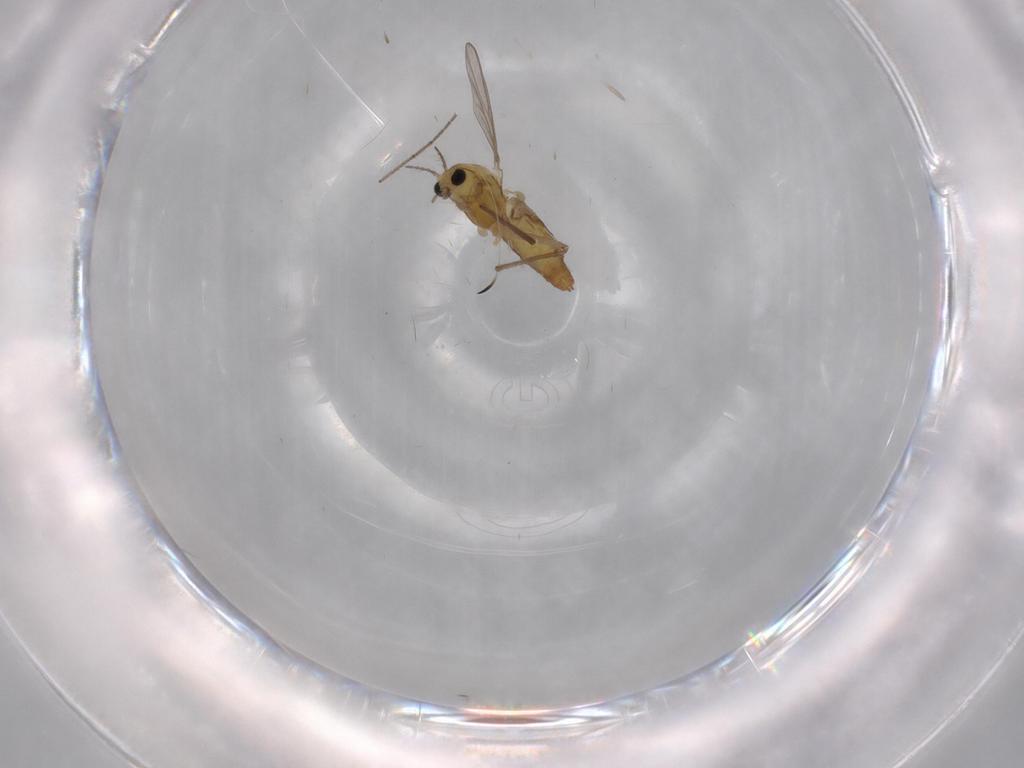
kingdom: Animalia
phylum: Arthropoda
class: Insecta
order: Diptera
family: Chironomidae
